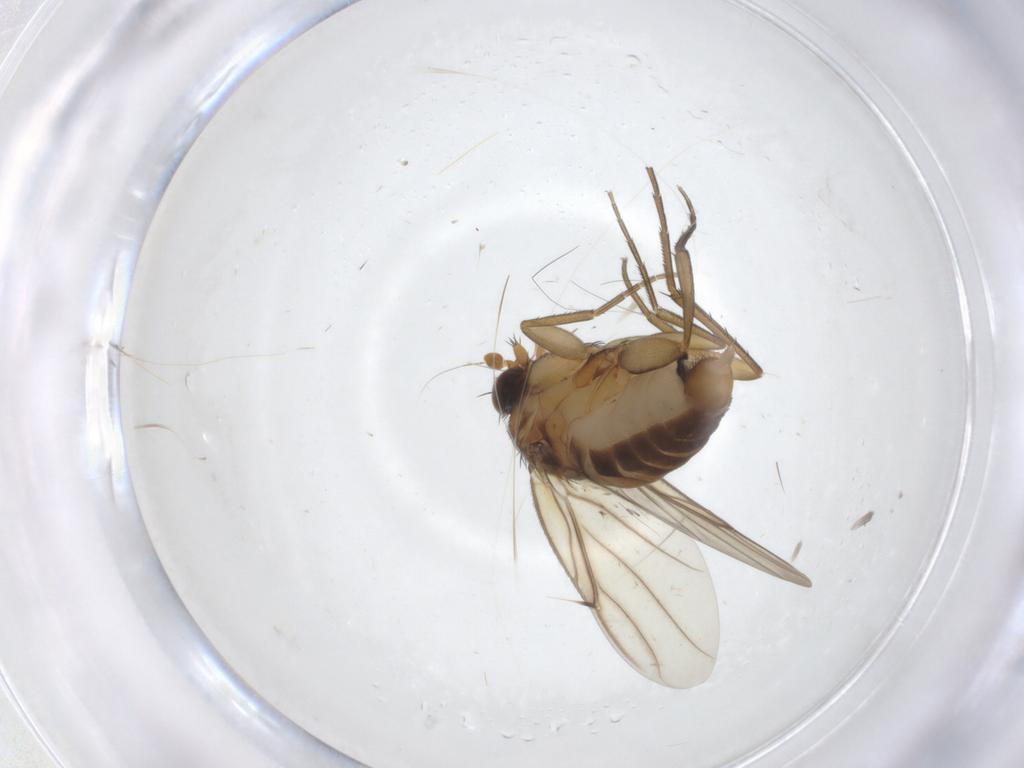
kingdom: Animalia
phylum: Arthropoda
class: Insecta
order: Diptera
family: Phoridae
